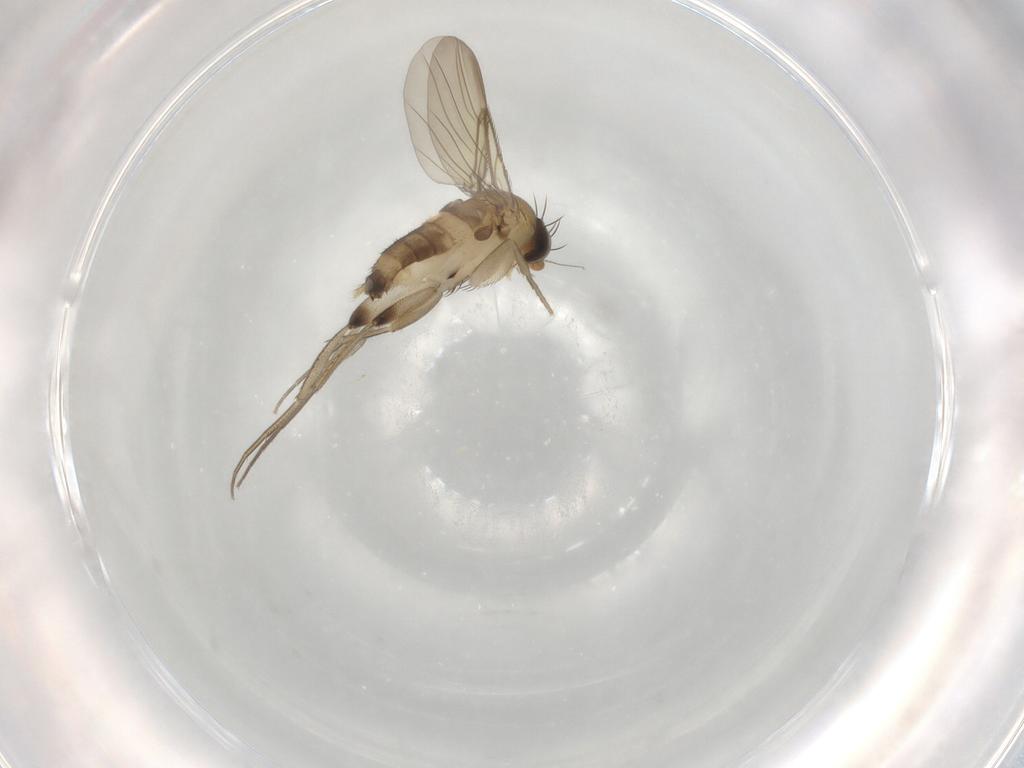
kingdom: Animalia
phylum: Arthropoda
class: Insecta
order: Diptera
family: Phoridae
